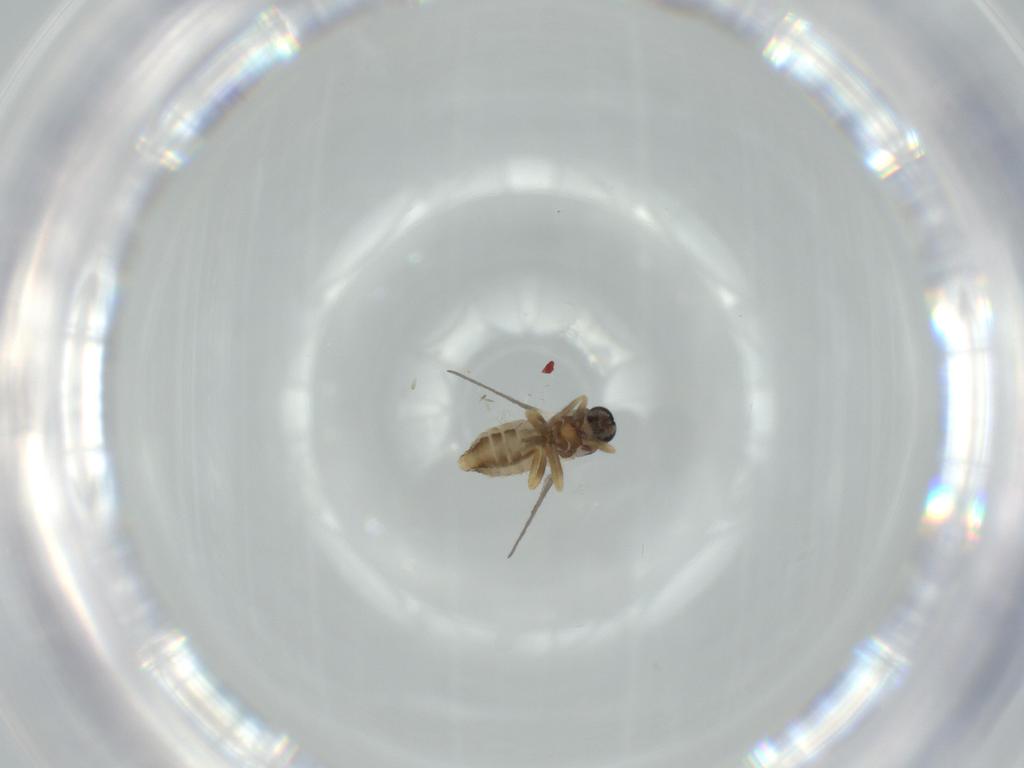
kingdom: Animalia
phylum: Arthropoda
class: Insecta
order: Diptera
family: Ceratopogonidae
